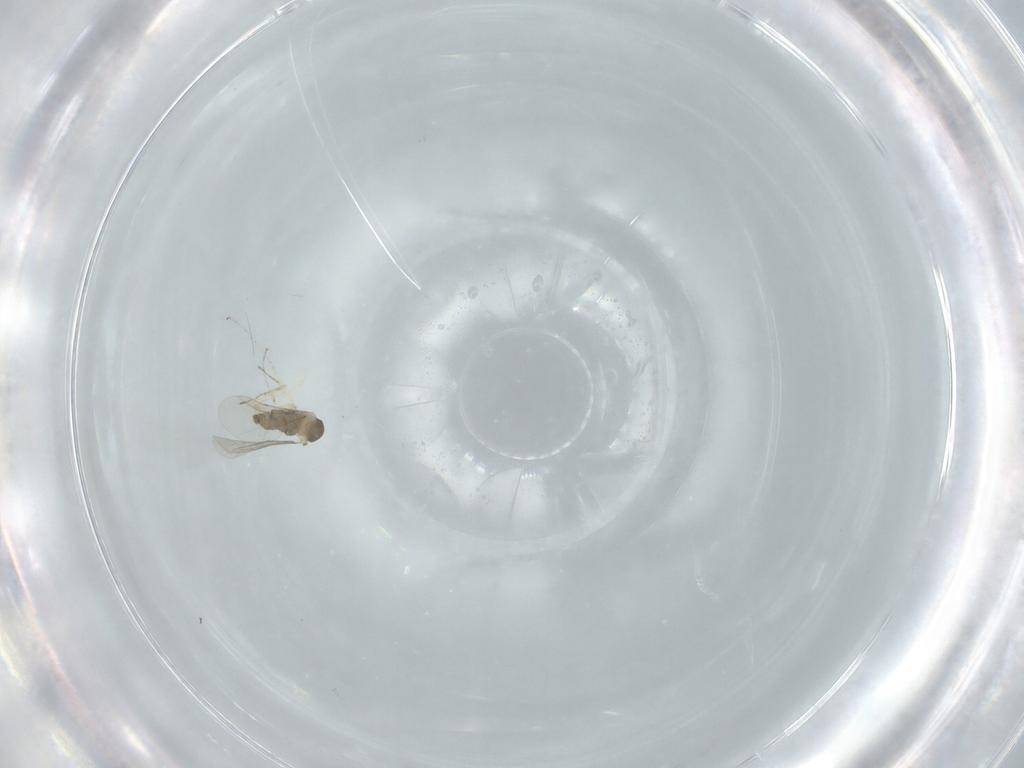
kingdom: Animalia
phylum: Arthropoda
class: Insecta
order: Diptera
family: Cecidomyiidae
